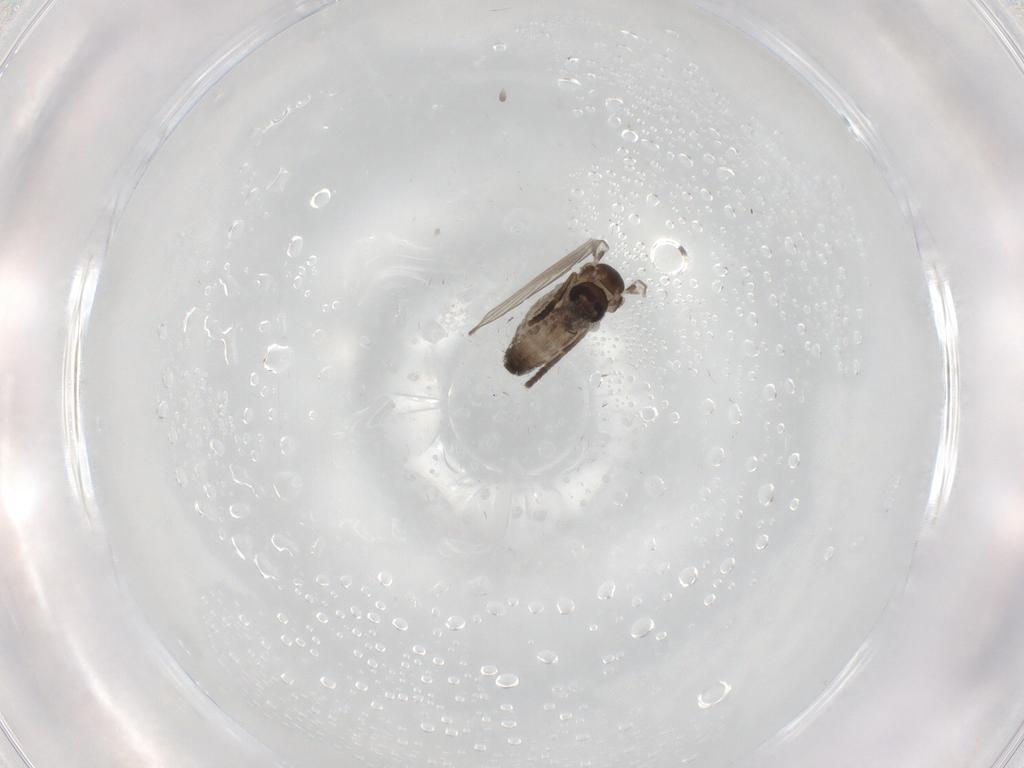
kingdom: Animalia
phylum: Arthropoda
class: Insecta
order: Diptera
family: Psychodidae
